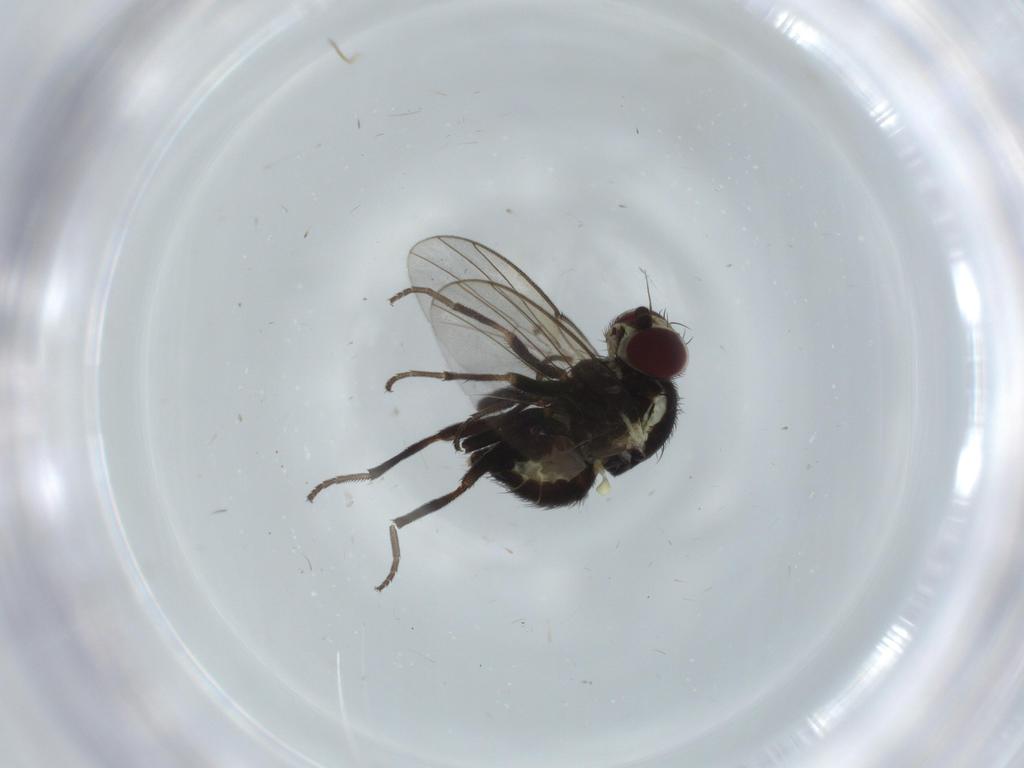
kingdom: Animalia
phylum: Arthropoda
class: Insecta
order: Diptera
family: Agromyzidae
